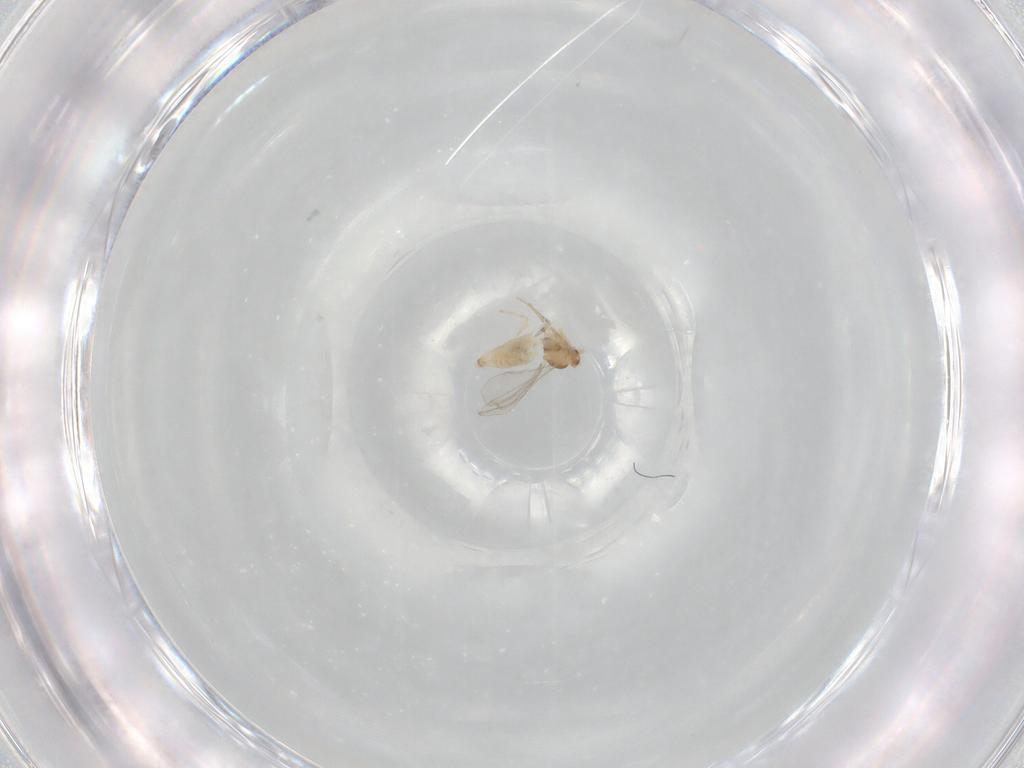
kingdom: Animalia
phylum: Arthropoda
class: Insecta
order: Diptera
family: Cecidomyiidae
